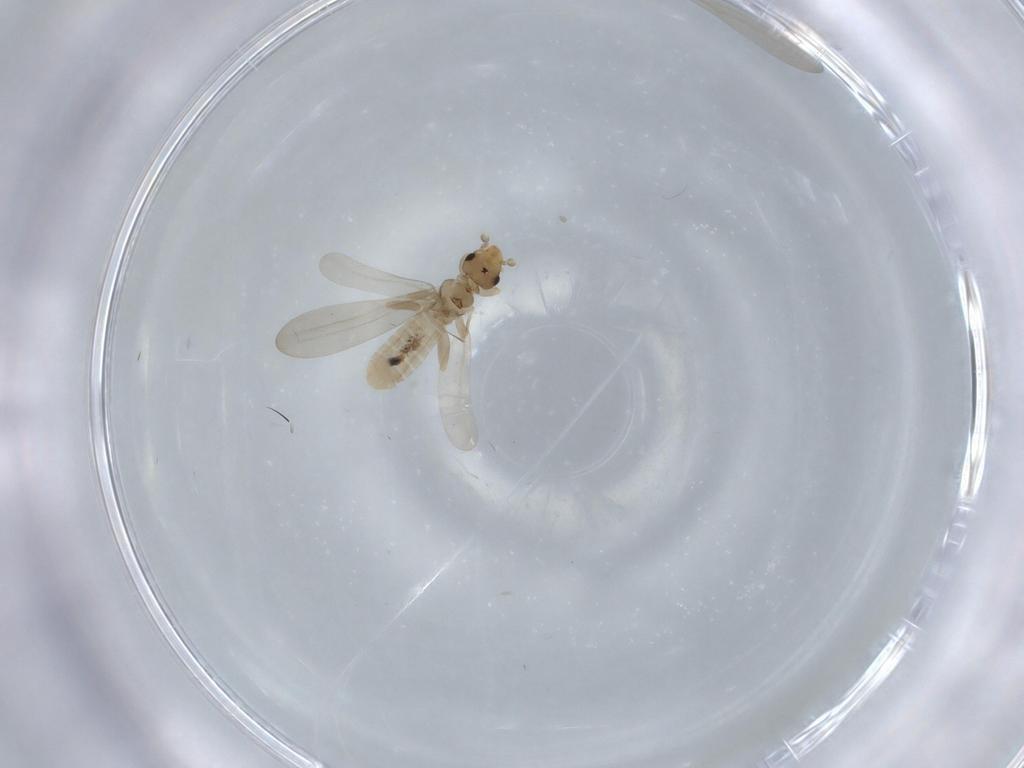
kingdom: Animalia
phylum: Arthropoda
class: Insecta
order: Psocodea
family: Liposcelididae
